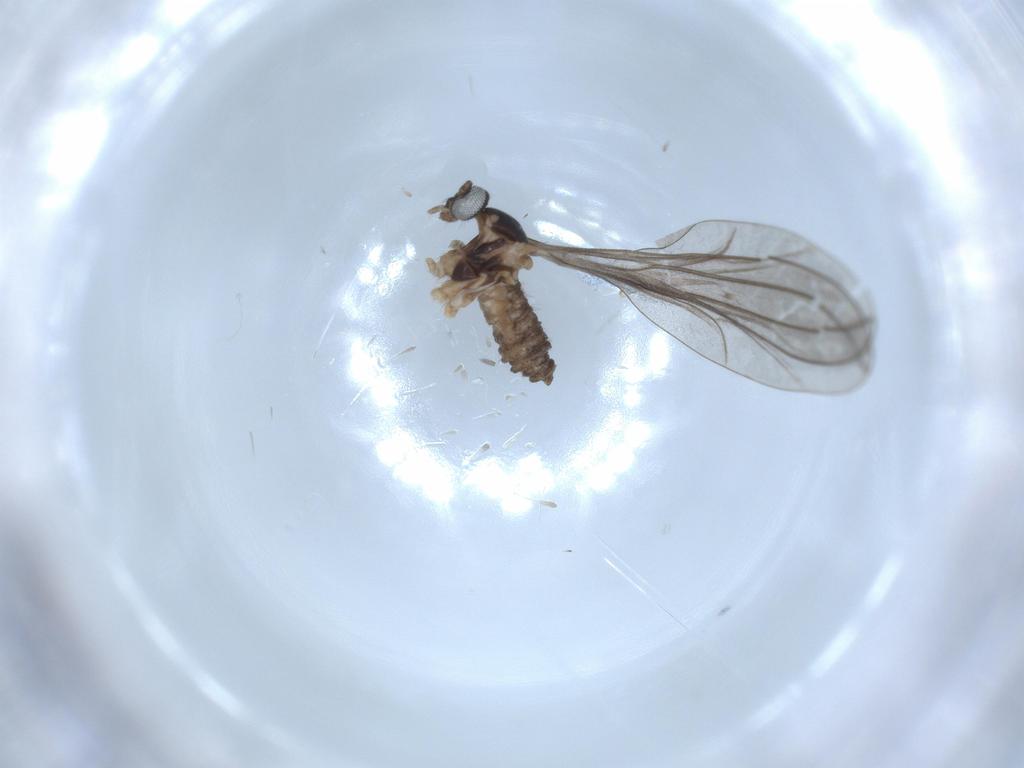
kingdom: Animalia
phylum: Arthropoda
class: Insecta
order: Diptera
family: Cecidomyiidae
